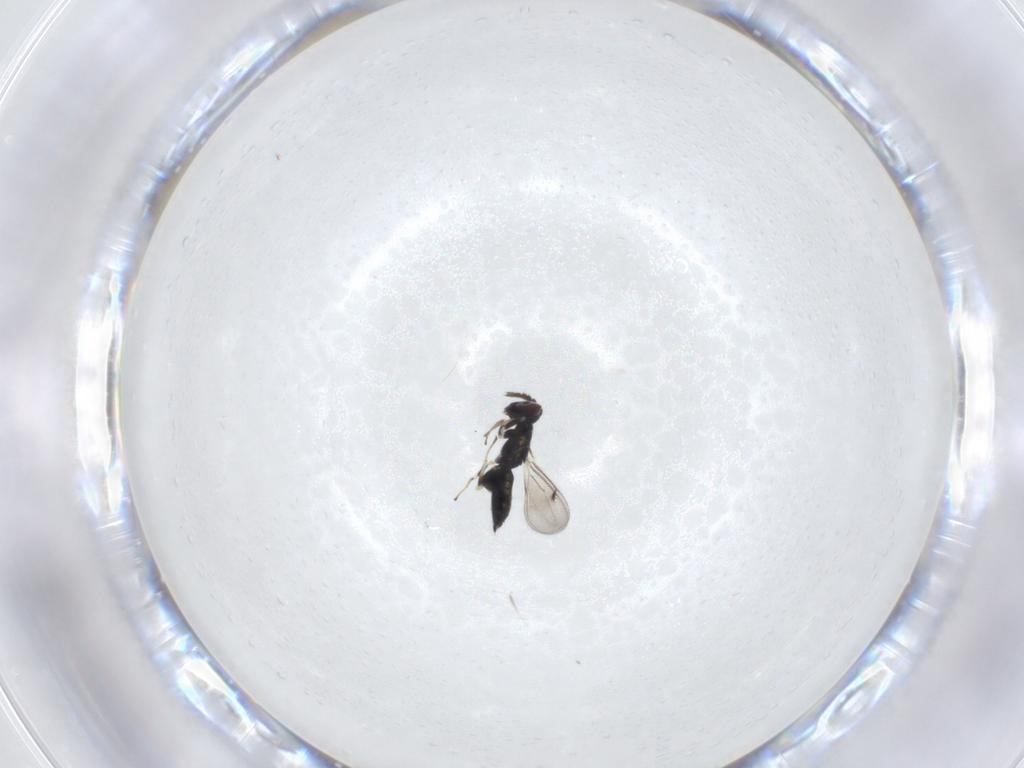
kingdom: Animalia
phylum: Arthropoda
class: Insecta
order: Hymenoptera
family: Eulophidae
